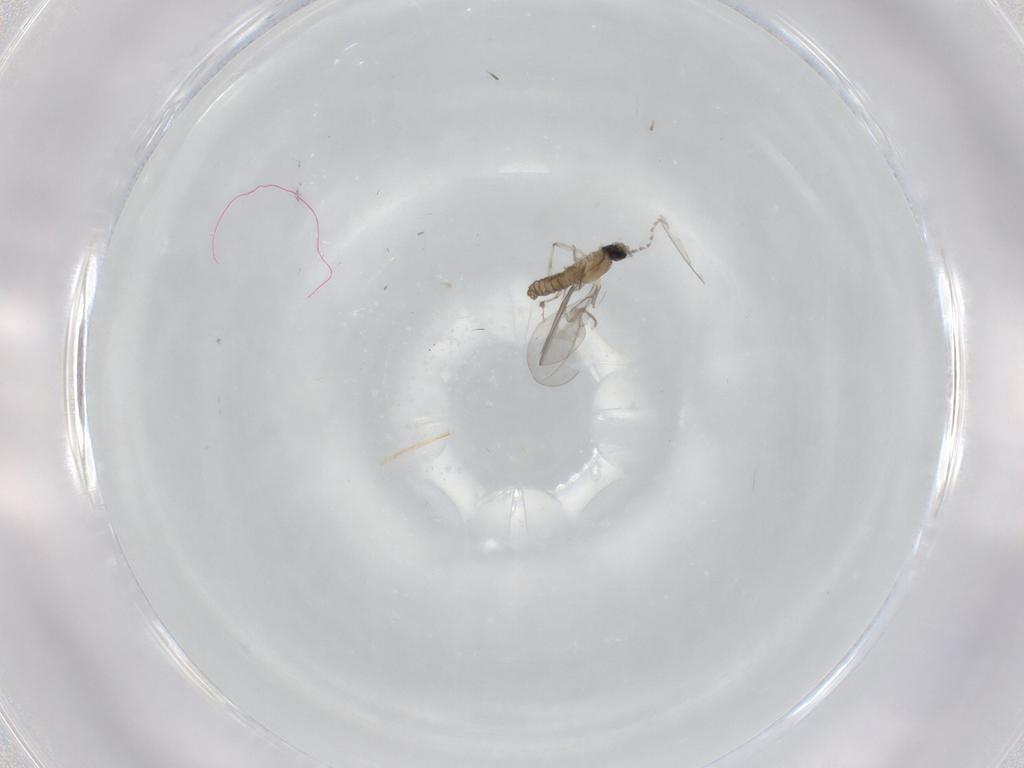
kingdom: Animalia
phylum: Arthropoda
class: Insecta
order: Diptera
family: Cecidomyiidae
